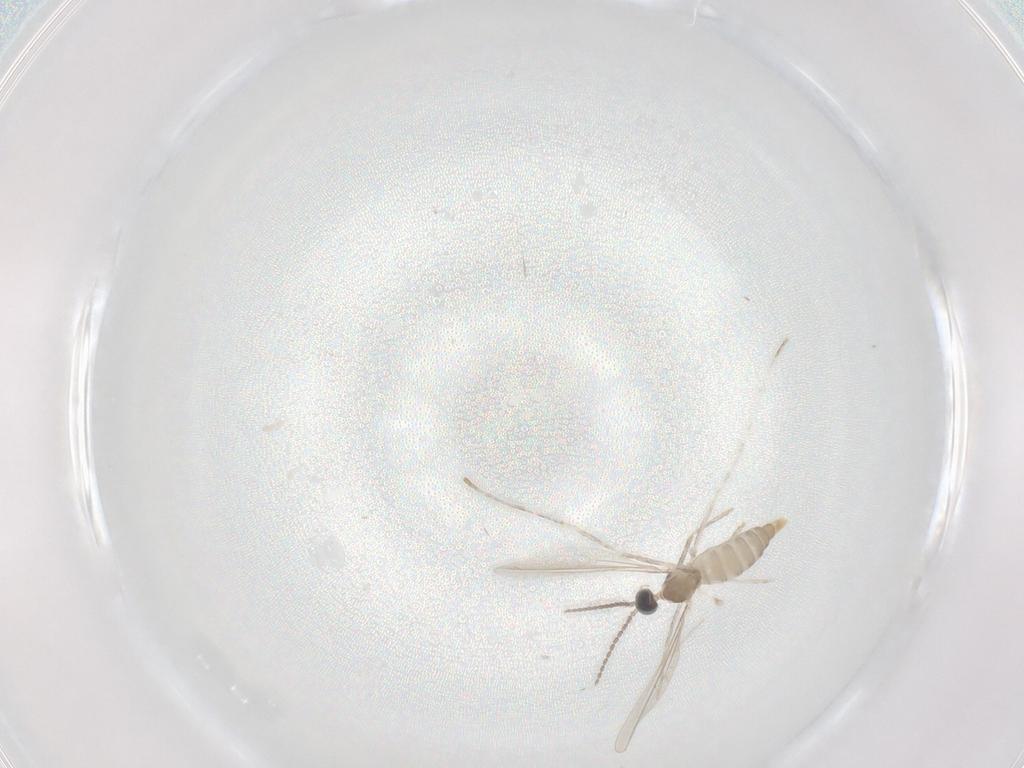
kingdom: Animalia
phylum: Arthropoda
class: Insecta
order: Diptera
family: Cecidomyiidae
